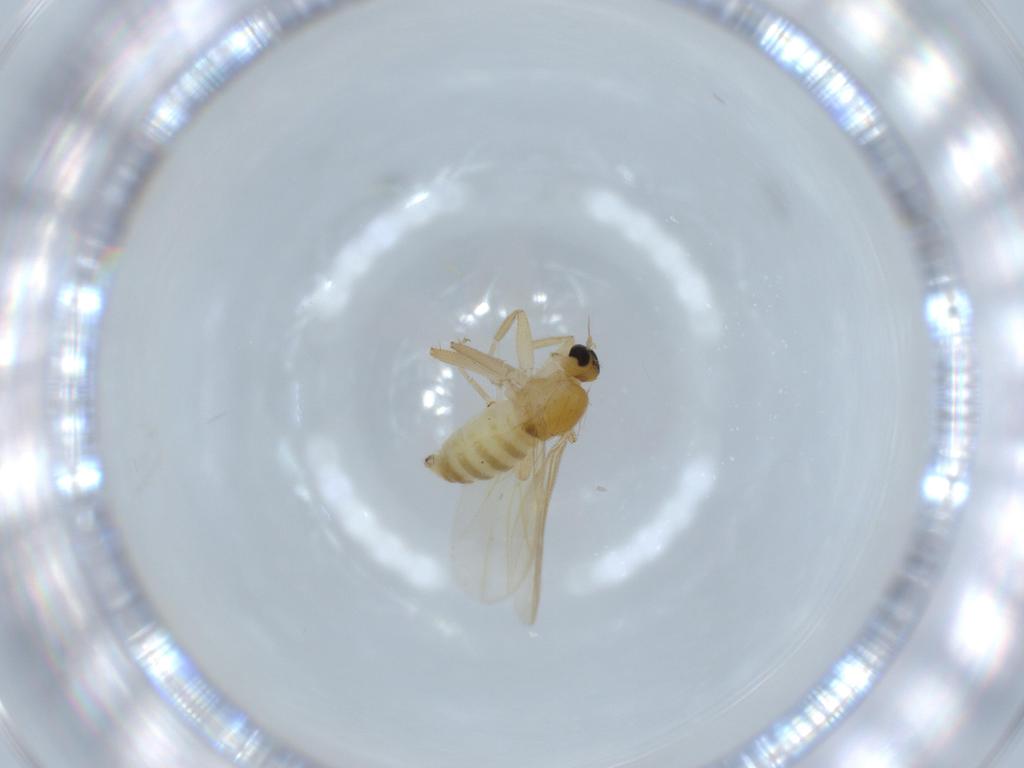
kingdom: Animalia
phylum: Arthropoda
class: Insecta
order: Diptera
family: Hybotidae
